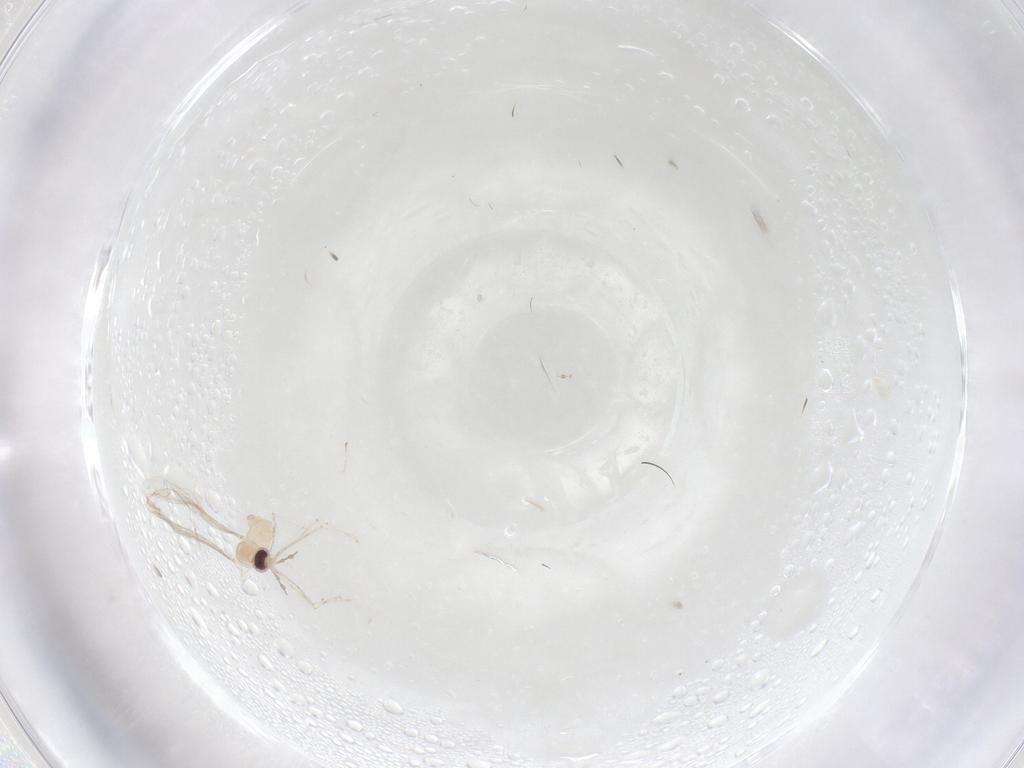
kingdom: Animalia
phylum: Arthropoda
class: Insecta
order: Diptera
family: Cecidomyiidae
